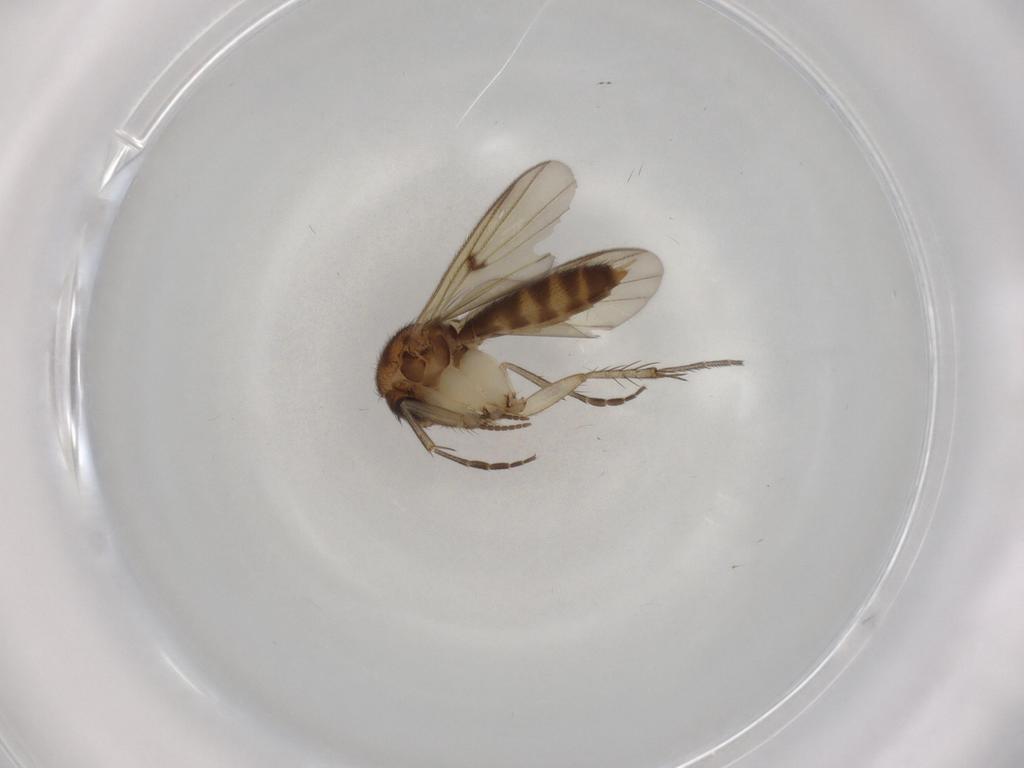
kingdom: Animalia
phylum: Arthropoda
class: Insecta
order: Diptera
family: Mycetophilidae
